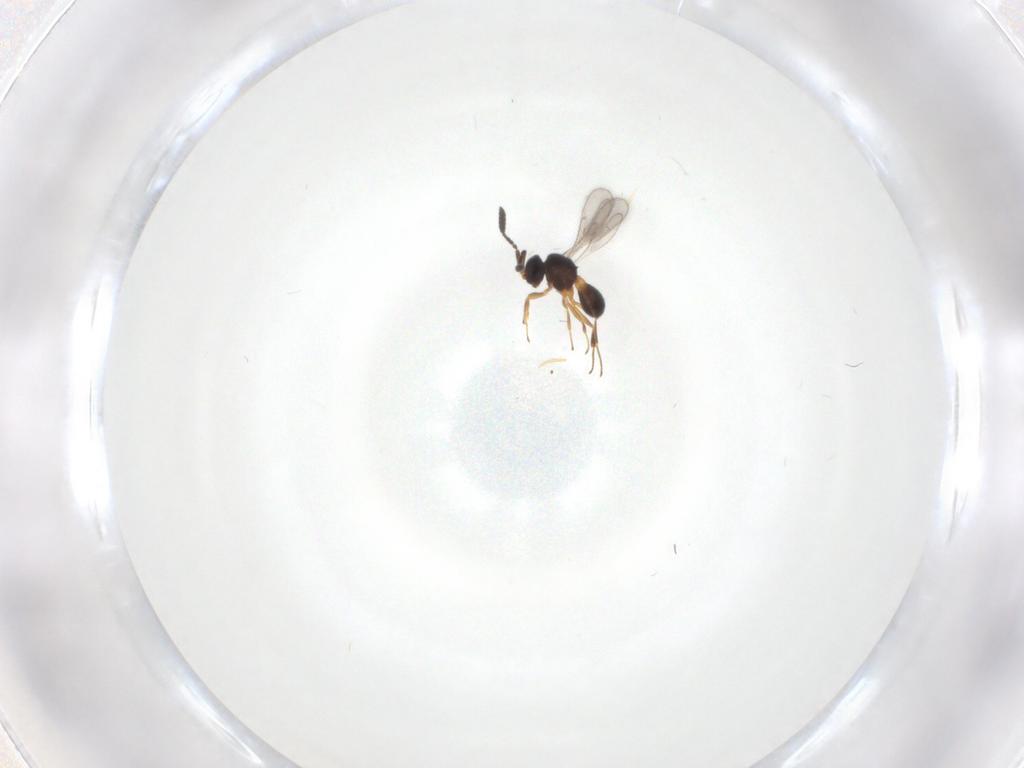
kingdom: Animalia
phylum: Arthropoda
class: Insecta
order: Hymenoptera
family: Scelionidae
